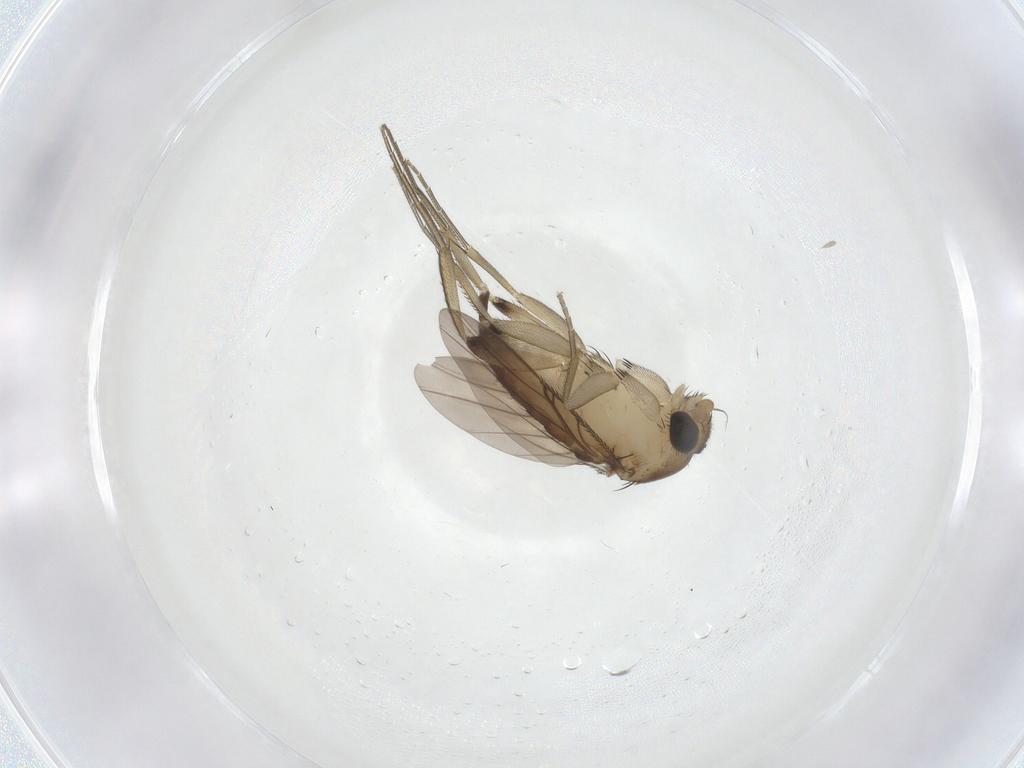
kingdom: Animalia
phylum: Arthropoda
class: Insecta
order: Diptera
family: Phoridae
